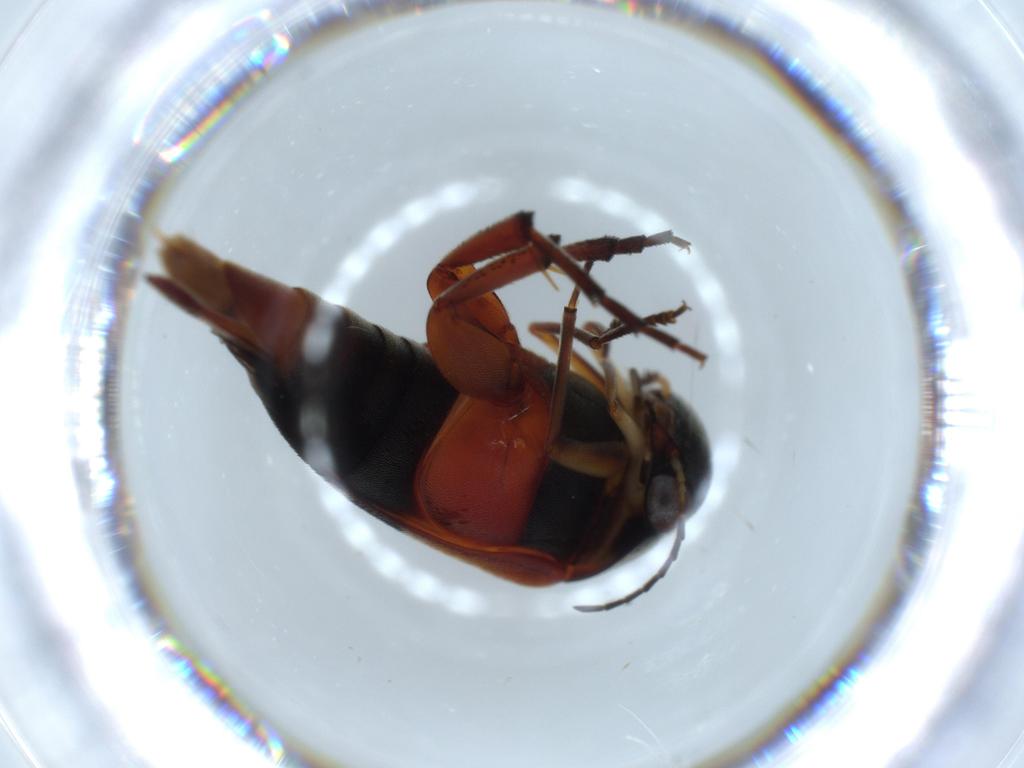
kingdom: Animalia
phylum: Arthropoda
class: Insecta
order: Coleoptera
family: Mordellidae
